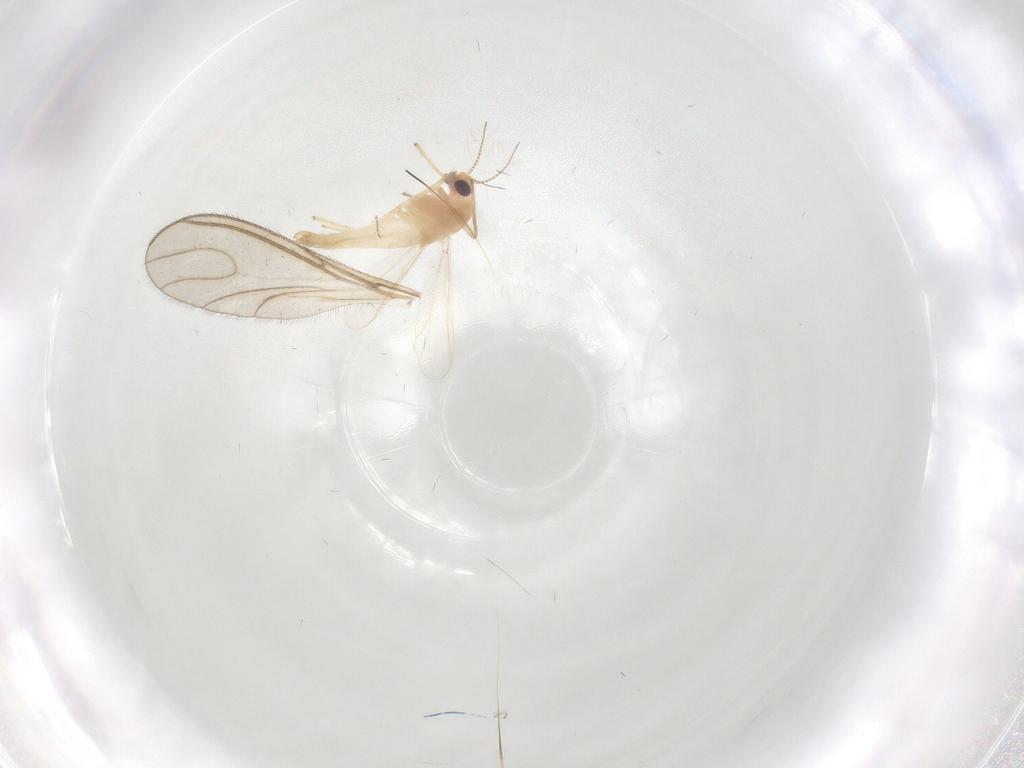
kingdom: Animalia
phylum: Arthropoda
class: Insecta
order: Diptera
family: Chironomidae
